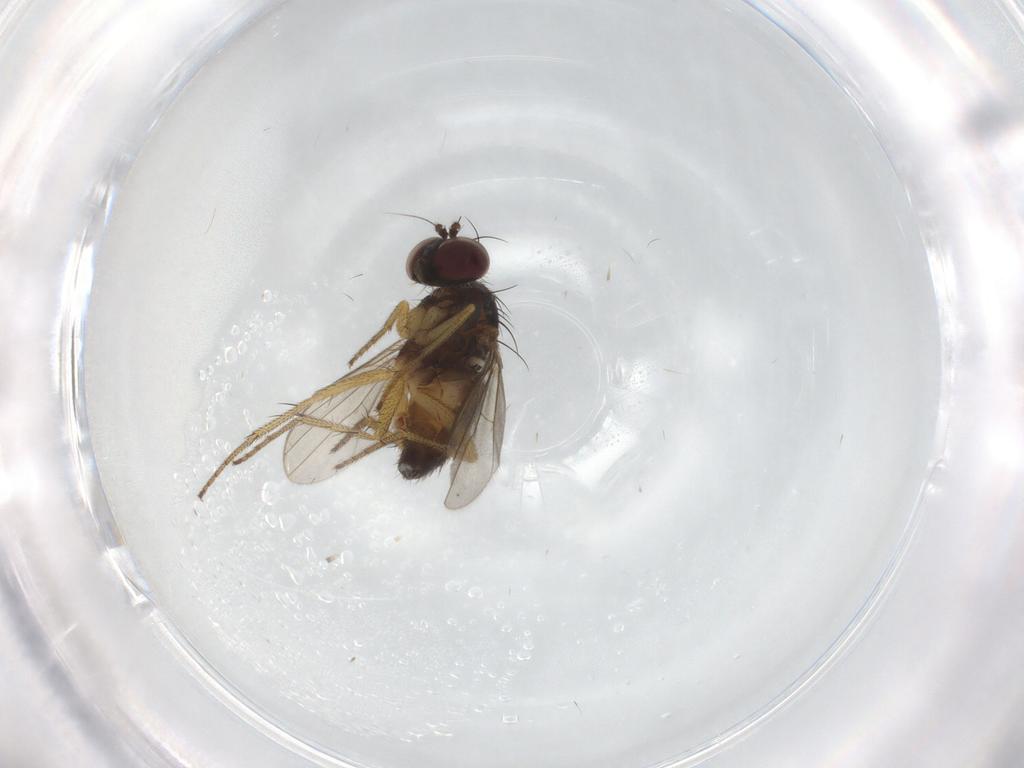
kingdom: Animalia
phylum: Arthropoda
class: Insecta
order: Diptera
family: Dolichopodidae
